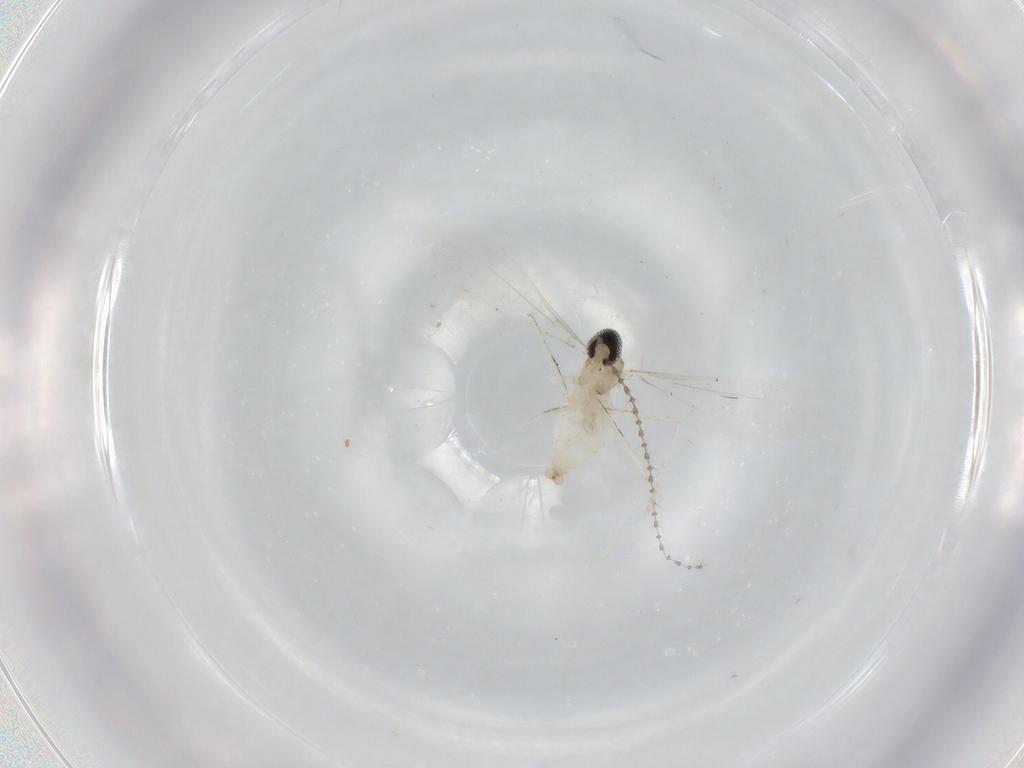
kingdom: Animalia
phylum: Arthropoda
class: Insecta
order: Diptera
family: Cecidomyiidae
